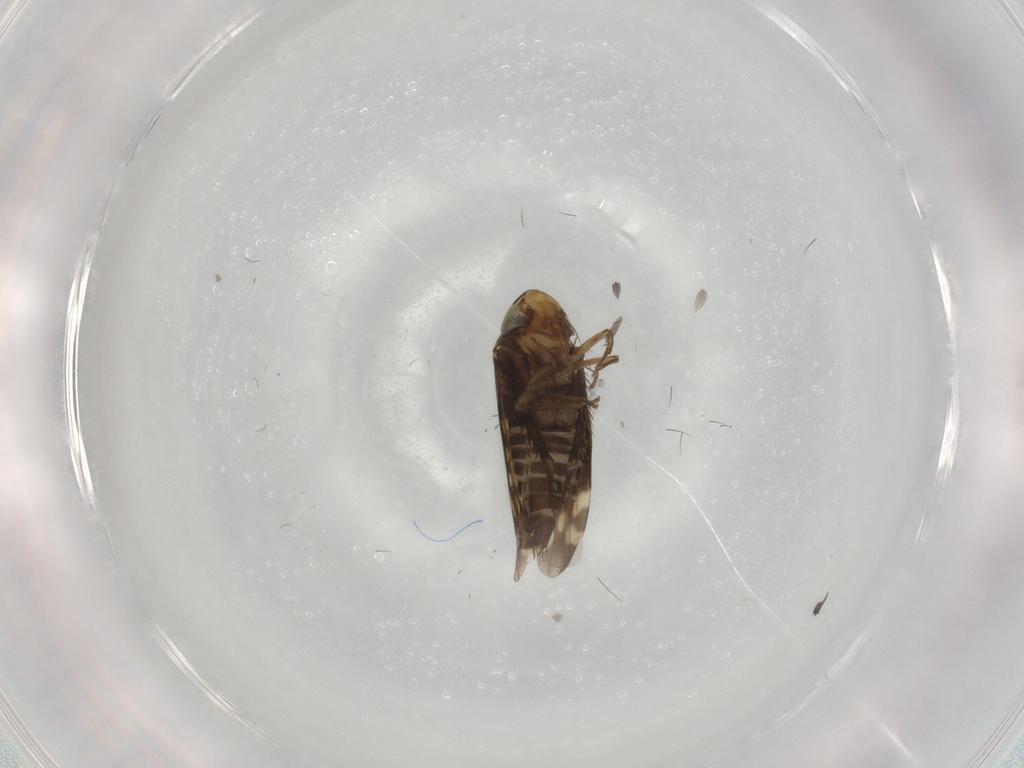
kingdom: Animalia
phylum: Arthropoda
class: Insecta
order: Hemiptera
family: Cicadellidae
